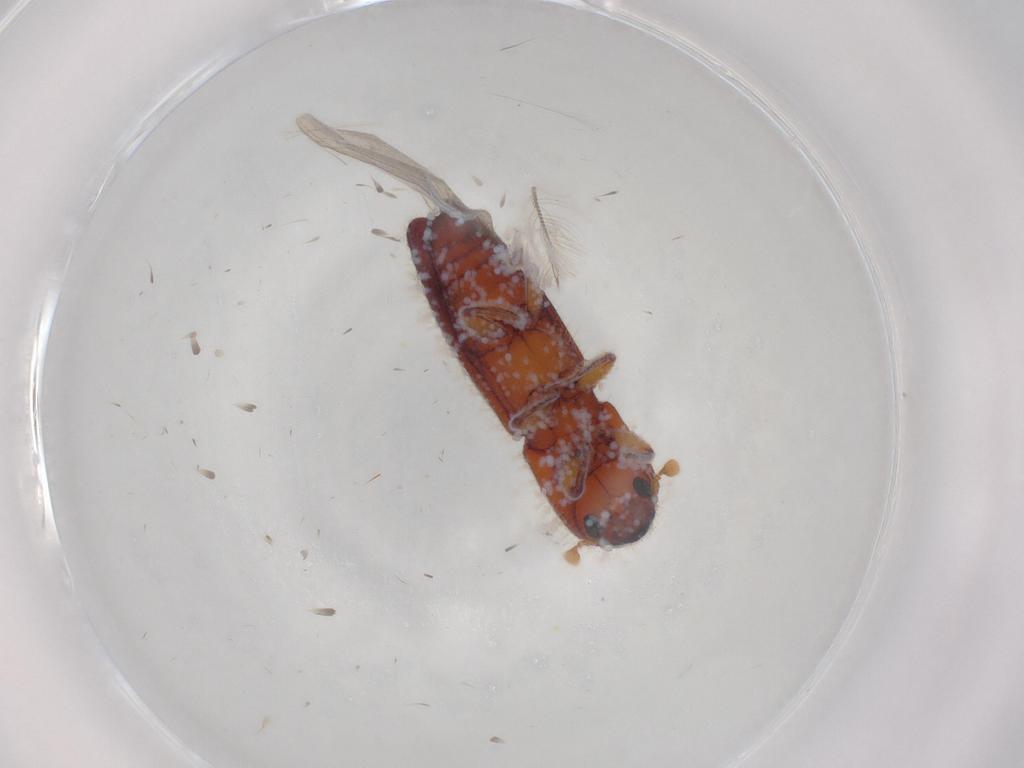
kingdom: Animalia
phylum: Arthropoda
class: Insecta
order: Coleoptera
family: Curculionidae
